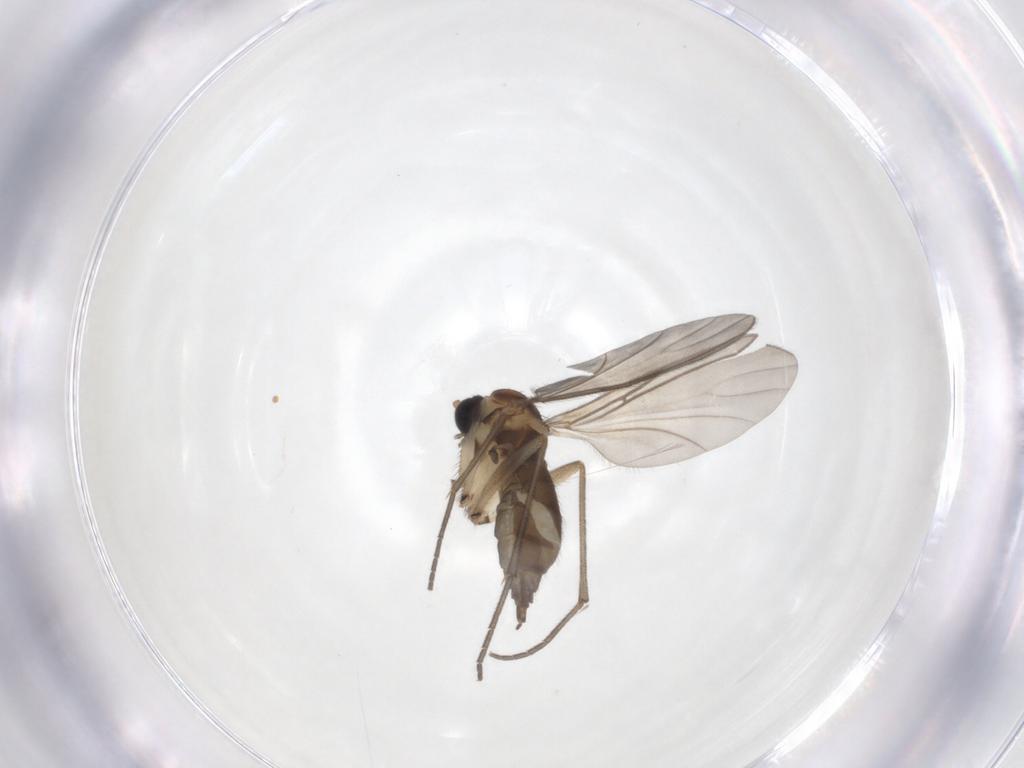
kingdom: Animalia
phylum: Arthropoda
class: Insecta
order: Diptera
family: Sciaridae
